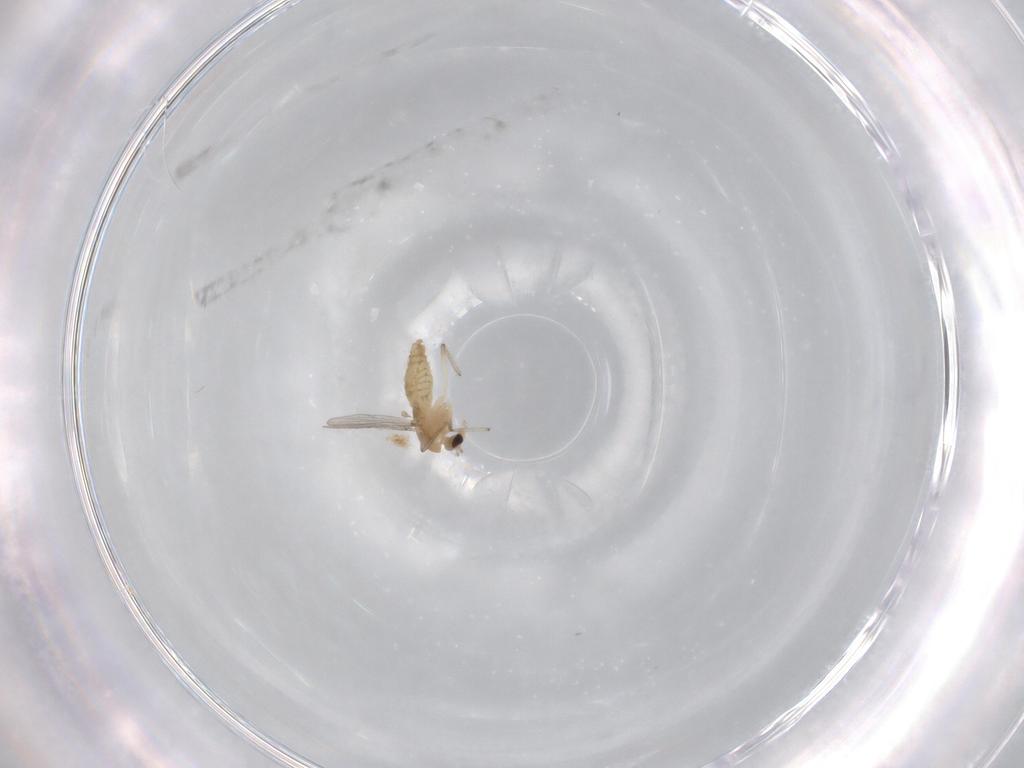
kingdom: Animalia
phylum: Arthropoda
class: Insecta
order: Diptera
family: Chironomidae
